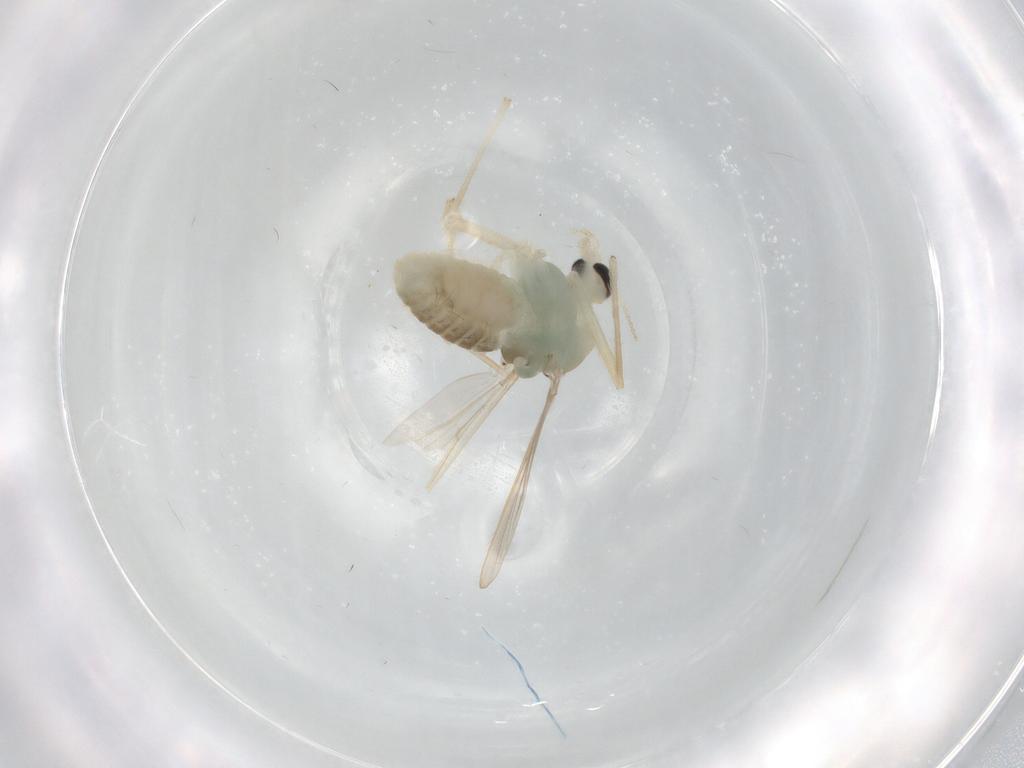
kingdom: Animalia
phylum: Arthropoda
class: Insecta
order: Diptera
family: Chironomidae
